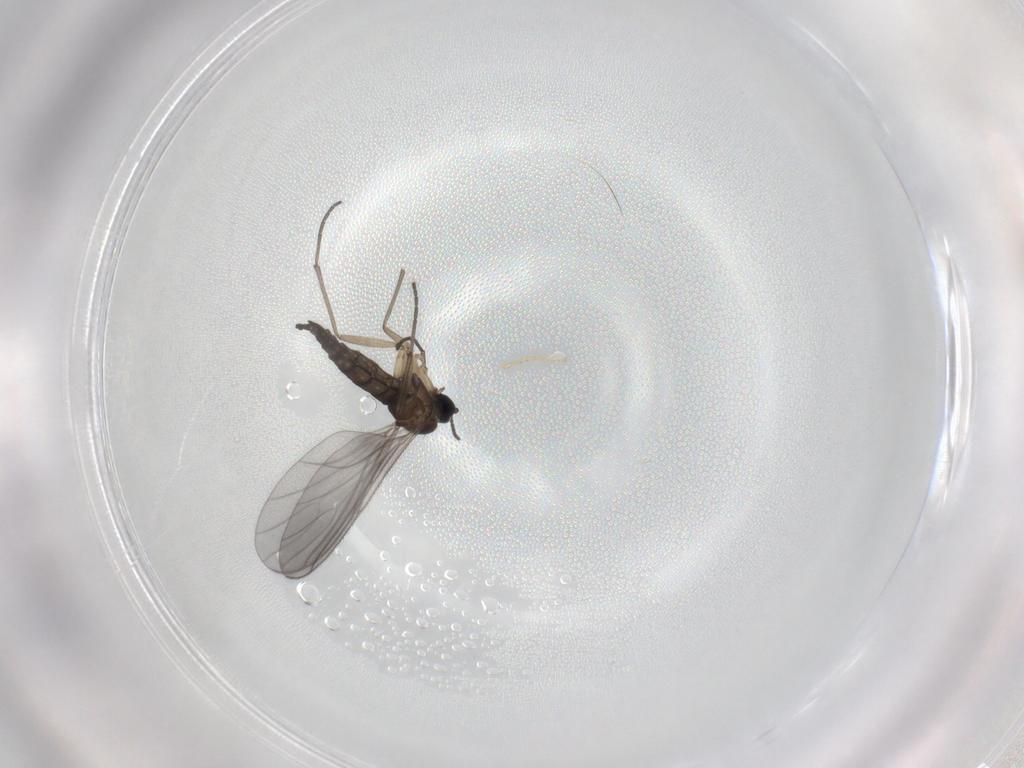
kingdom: Animalia
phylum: Arthropoda
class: Insecta
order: Diptera
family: Sciaridae
